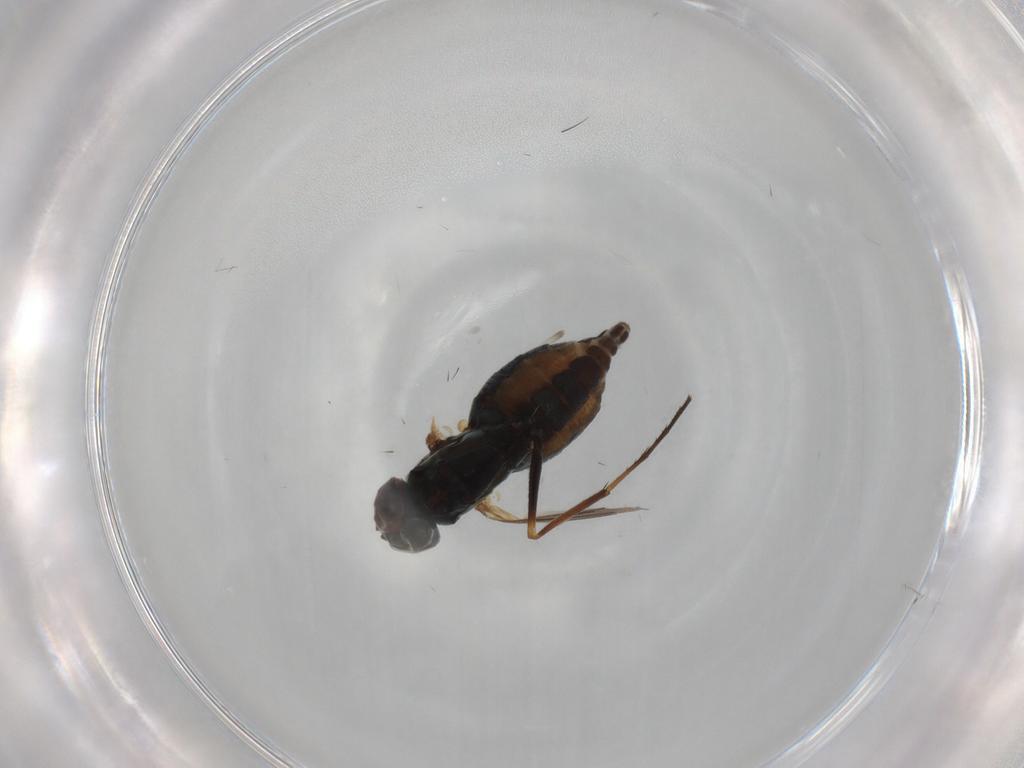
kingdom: Animalia
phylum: Arthropoda
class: Insecta
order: Diptera
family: Dolichopodidae
